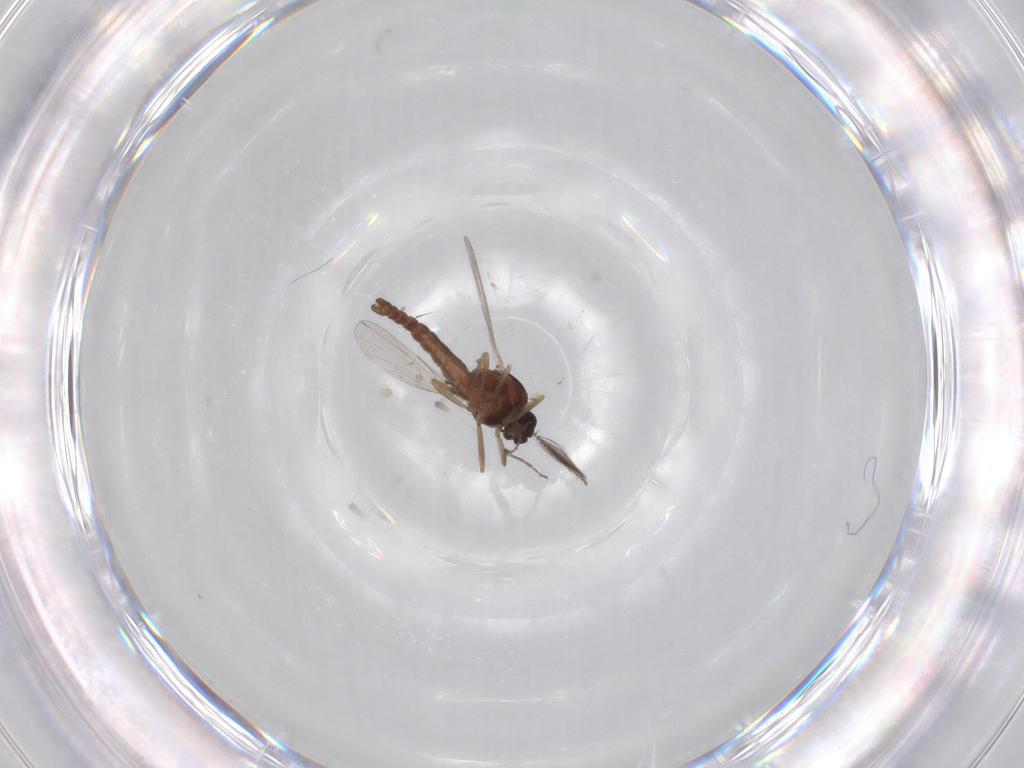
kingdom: Animalia
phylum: Arthropoda
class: Insecta
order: Diptera
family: Ceratopogonidae
